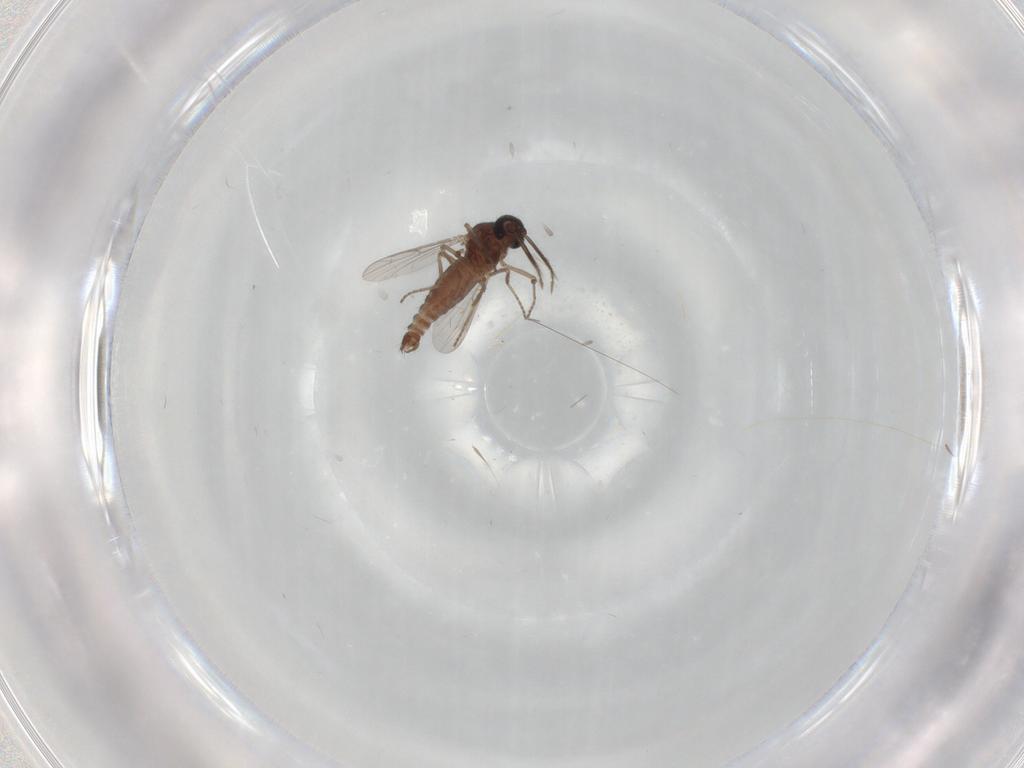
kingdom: Animalia
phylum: Arthropoda
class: Insecta
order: Diptera
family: Ceratopogonidae
